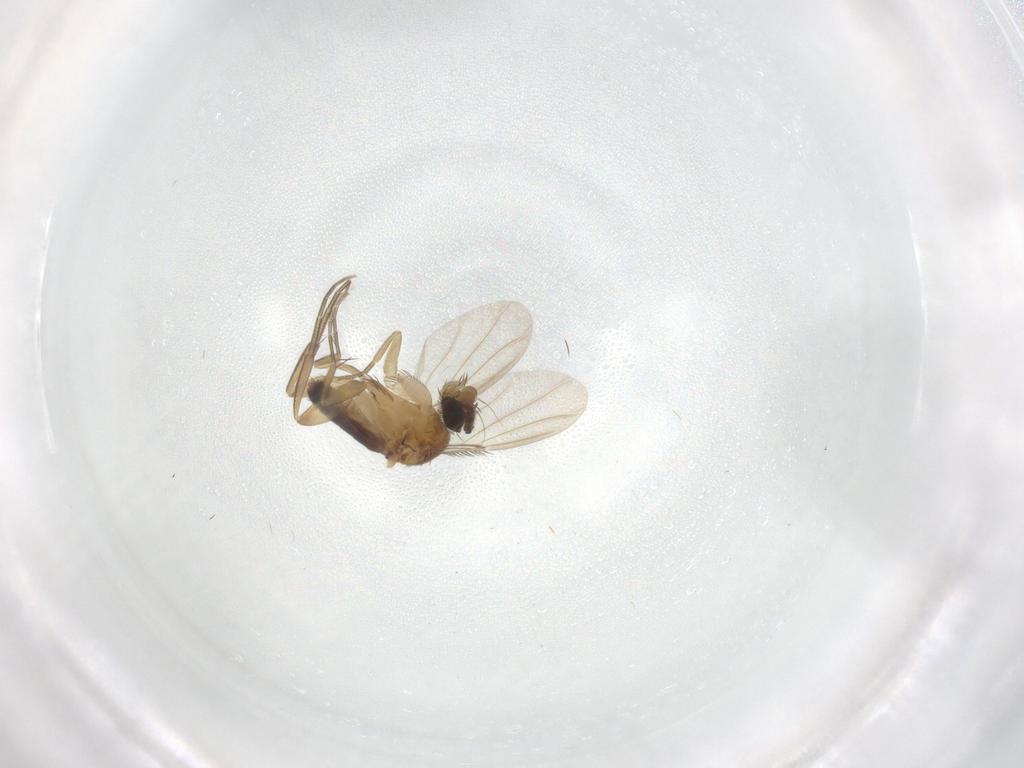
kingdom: Animalia
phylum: Arthropoda
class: Insecta
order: Diptera
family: Phoridae
